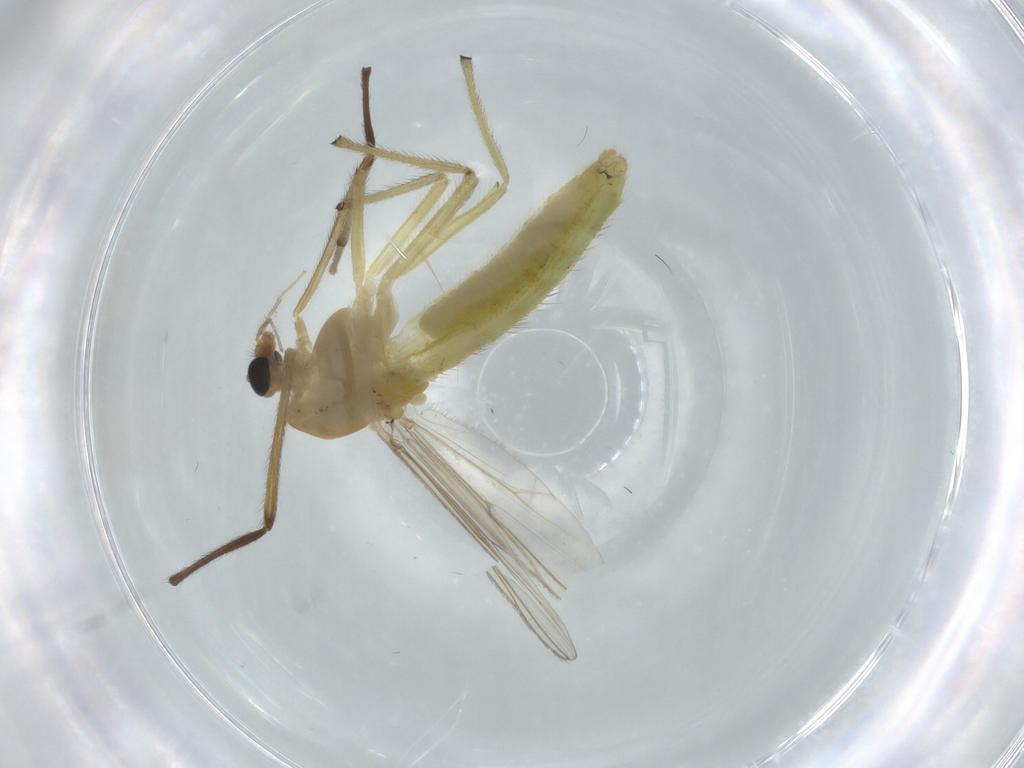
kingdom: Animalia
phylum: Arthropoda
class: Insecta
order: Diptera
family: Chironomidae
